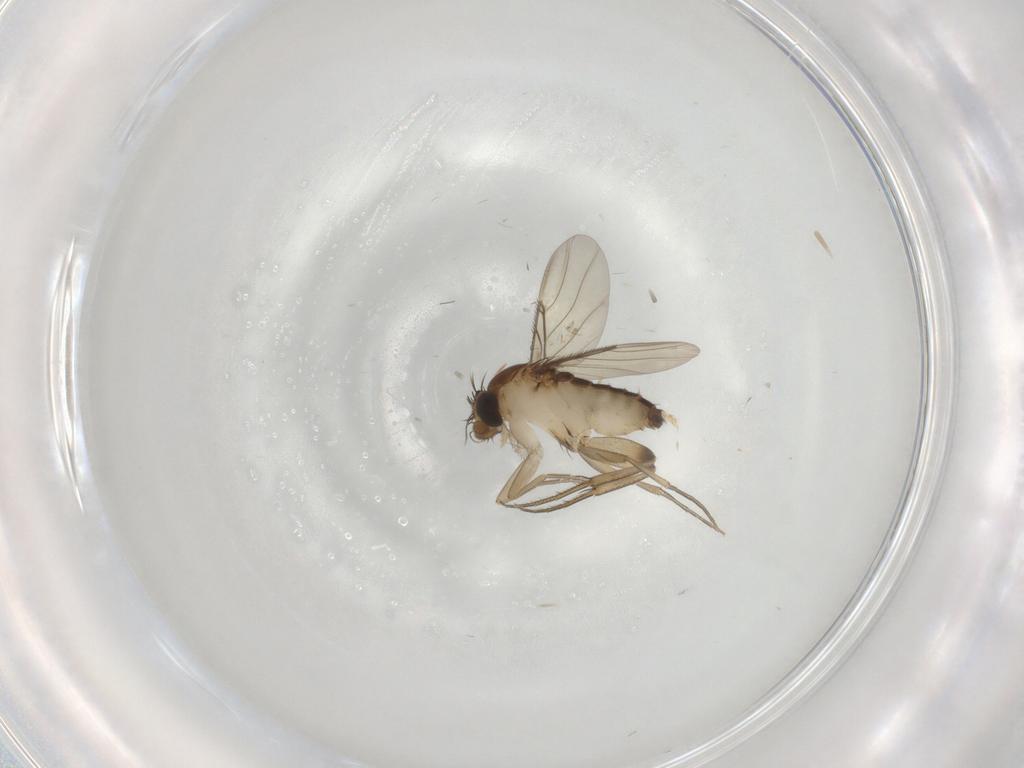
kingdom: Animalia
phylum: Arthropoda
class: Insecta
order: Diptera
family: Phoridae
